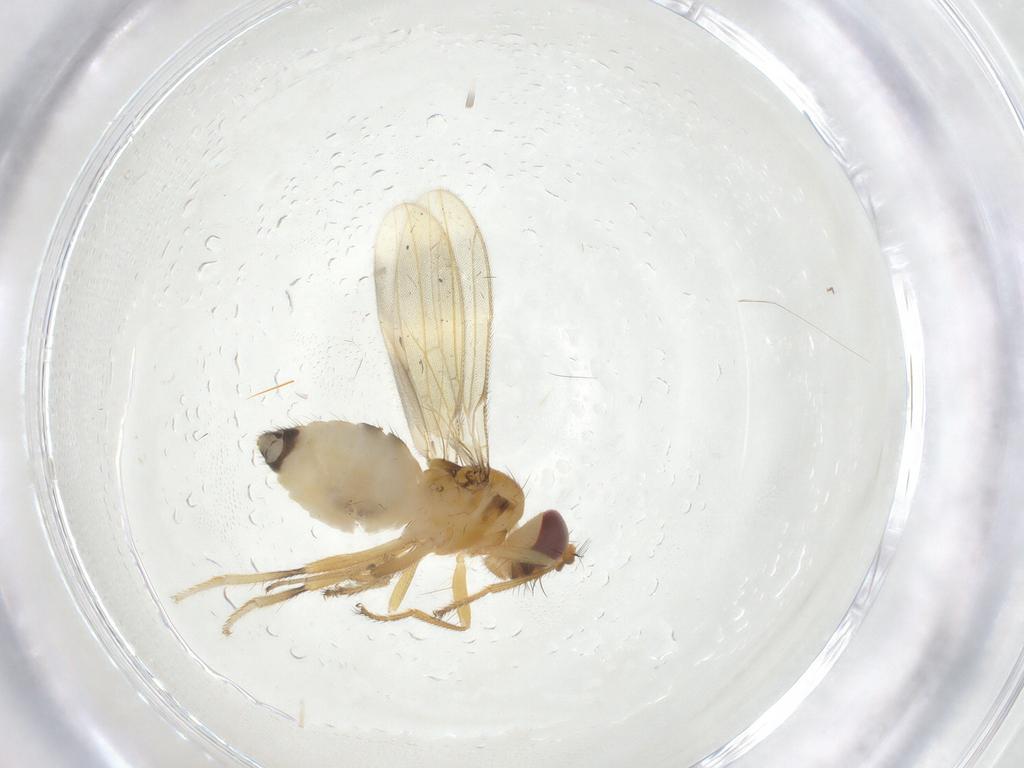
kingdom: Animalia
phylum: Arthropoda
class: Insecta
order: Diptera
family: Periscelididae
